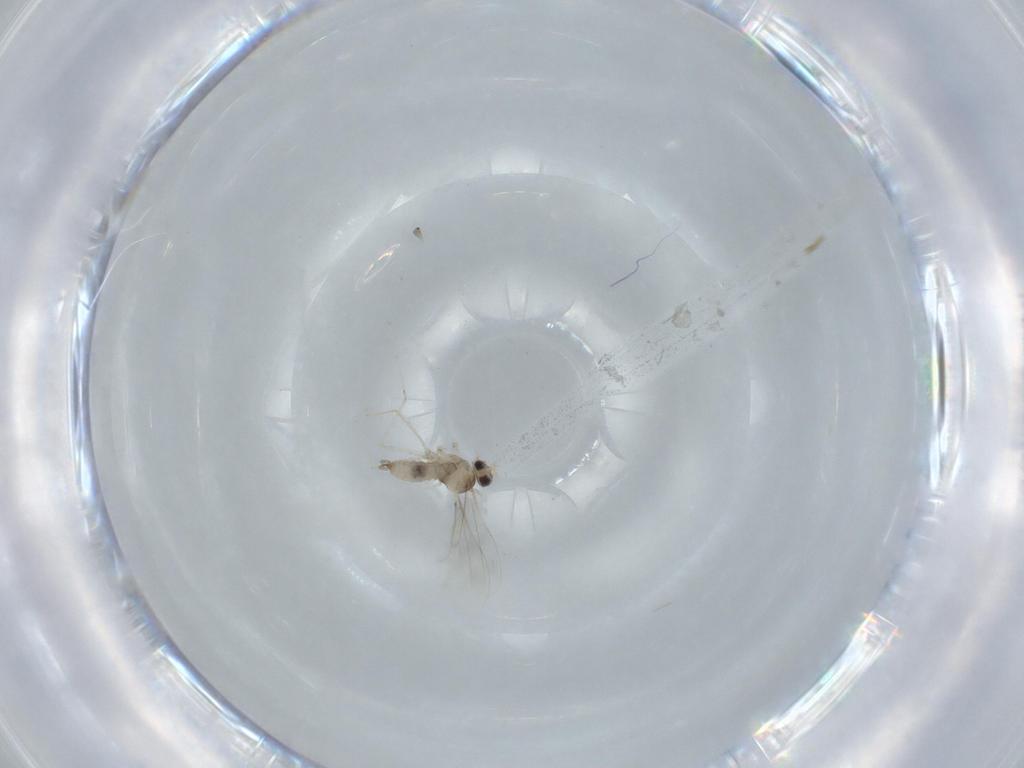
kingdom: Animalia
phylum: Arthropoda
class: Insecta
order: Diptera
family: Cecidomyiidae
